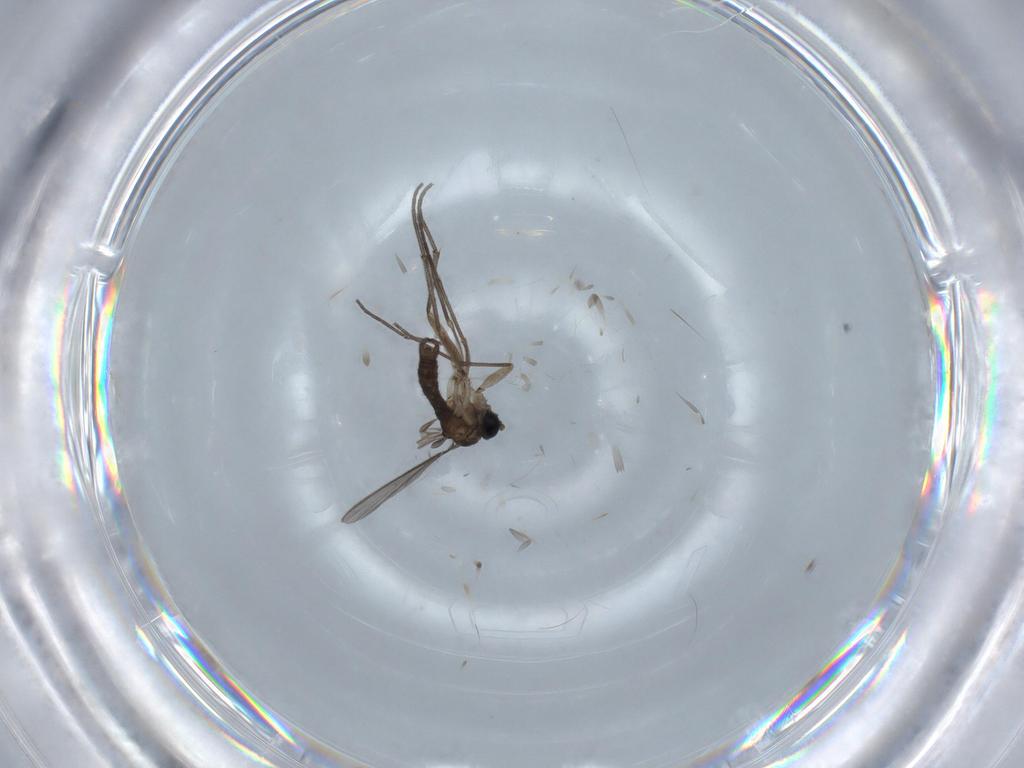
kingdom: Animalia
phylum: Arthropoda
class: Insecta
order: Diptera
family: Sciaridae
